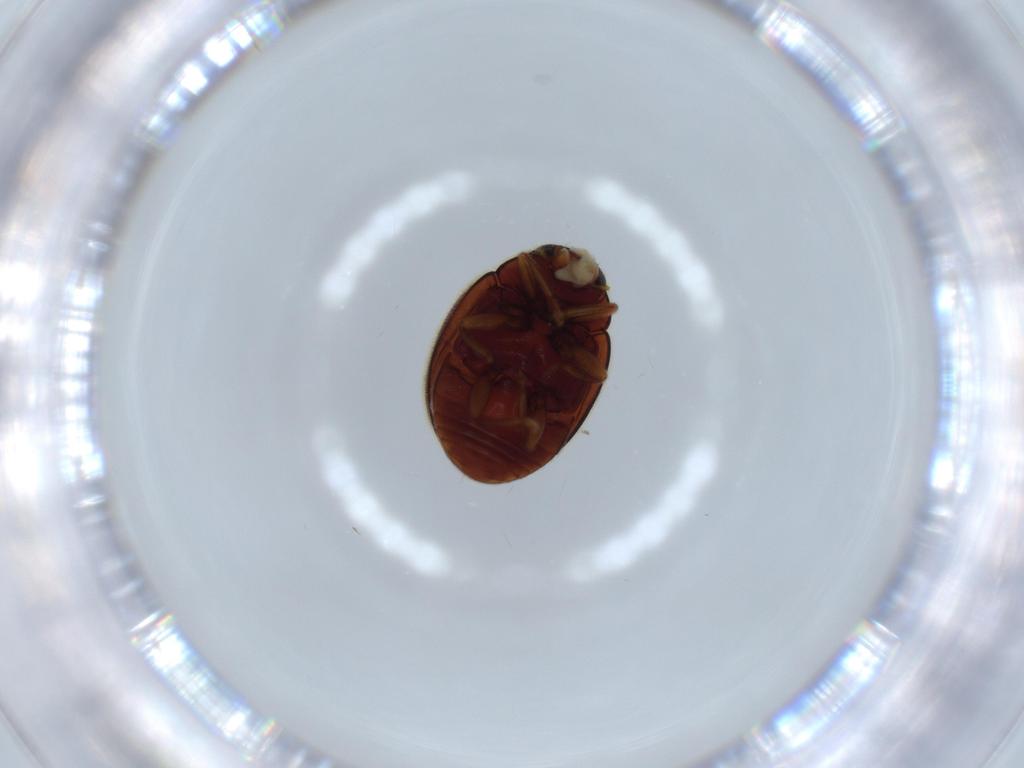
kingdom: Animalia
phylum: Arthropoda
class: Insecta
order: Coleoptera
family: Coccinellidae
